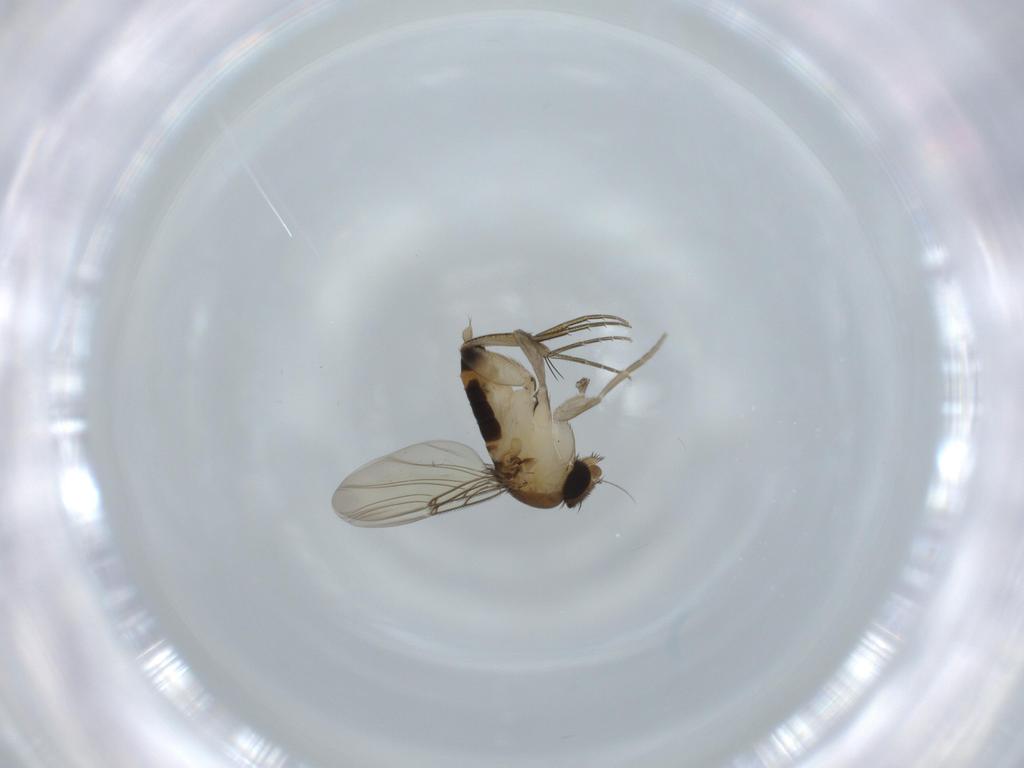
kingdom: Animalia
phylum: Arthropoda
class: Insecta
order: Diptera
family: Phoridae
